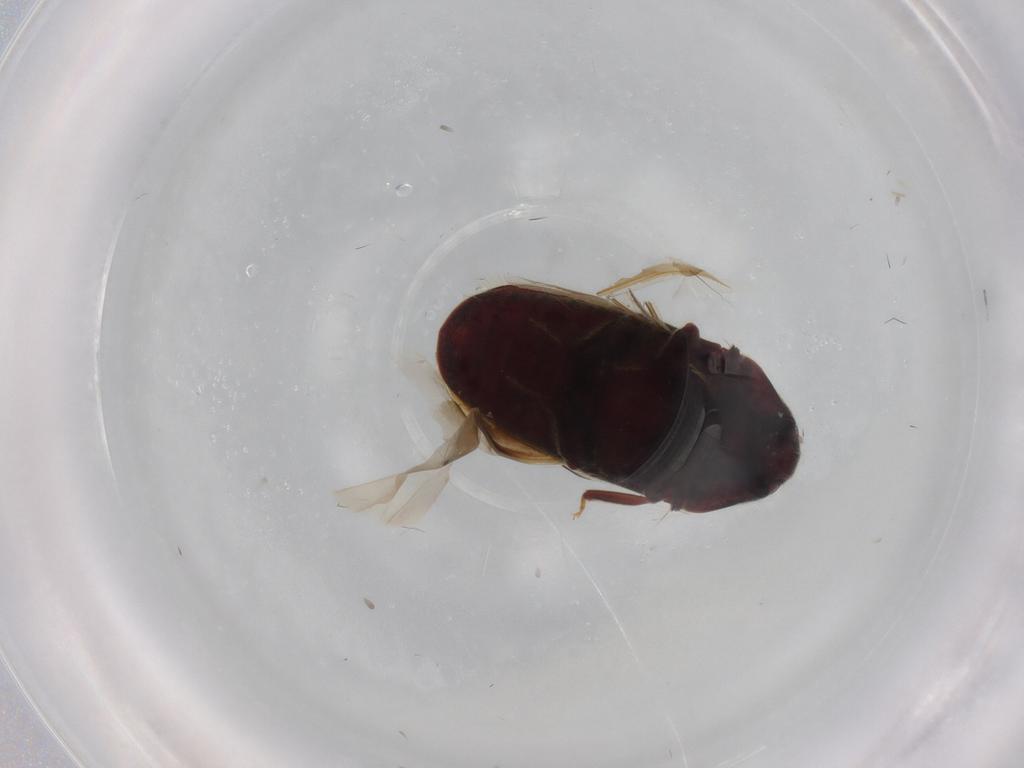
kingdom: Animalia
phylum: Arthropoda
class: Insecta
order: Coleoptera
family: Throscidae
